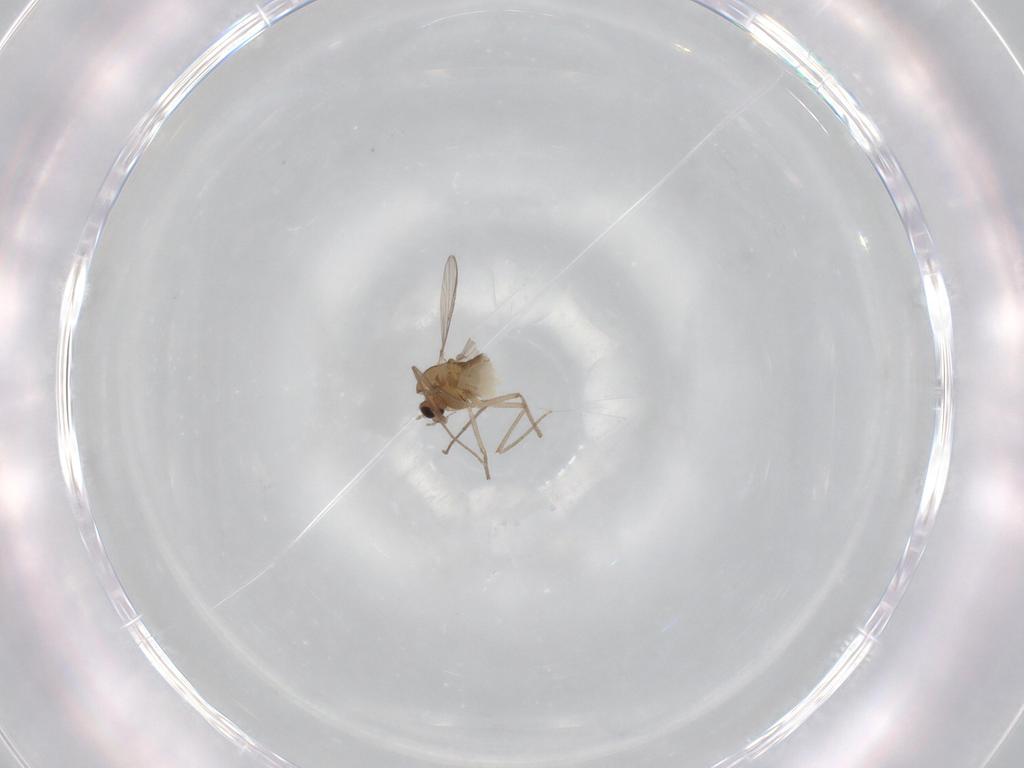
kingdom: Animalia
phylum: Arthropoda
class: Insecta
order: Diptera
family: Chironomidae
